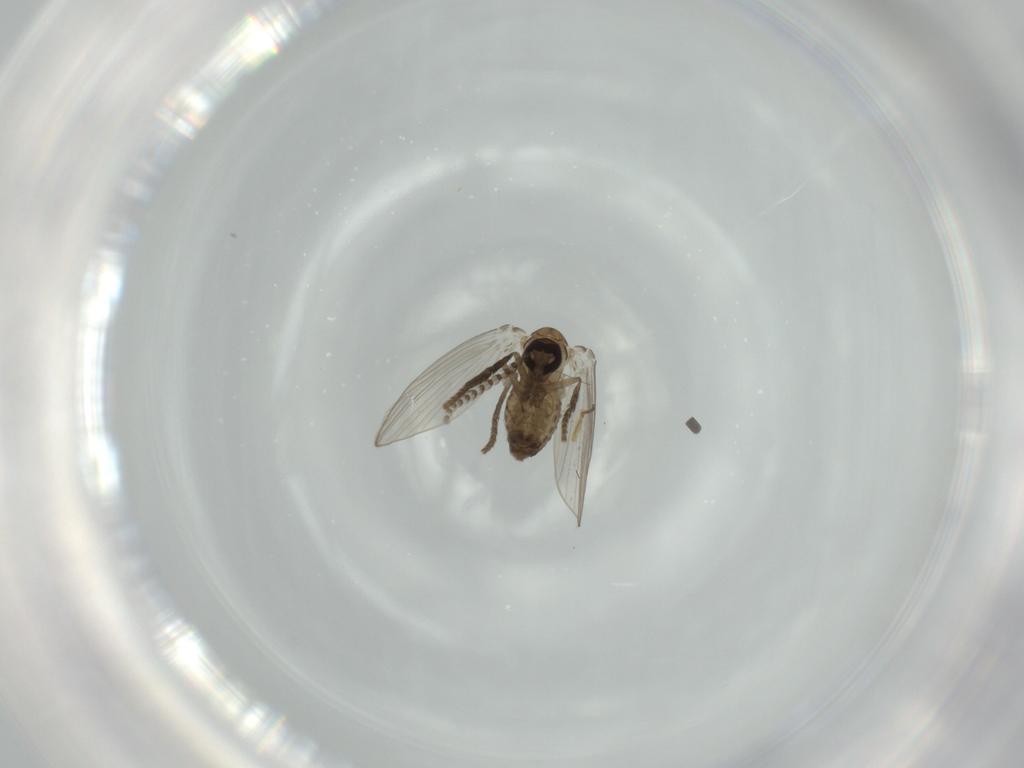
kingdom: Animalia
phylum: Arthropoda
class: Insecta
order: Diptera
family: Psychodidae
